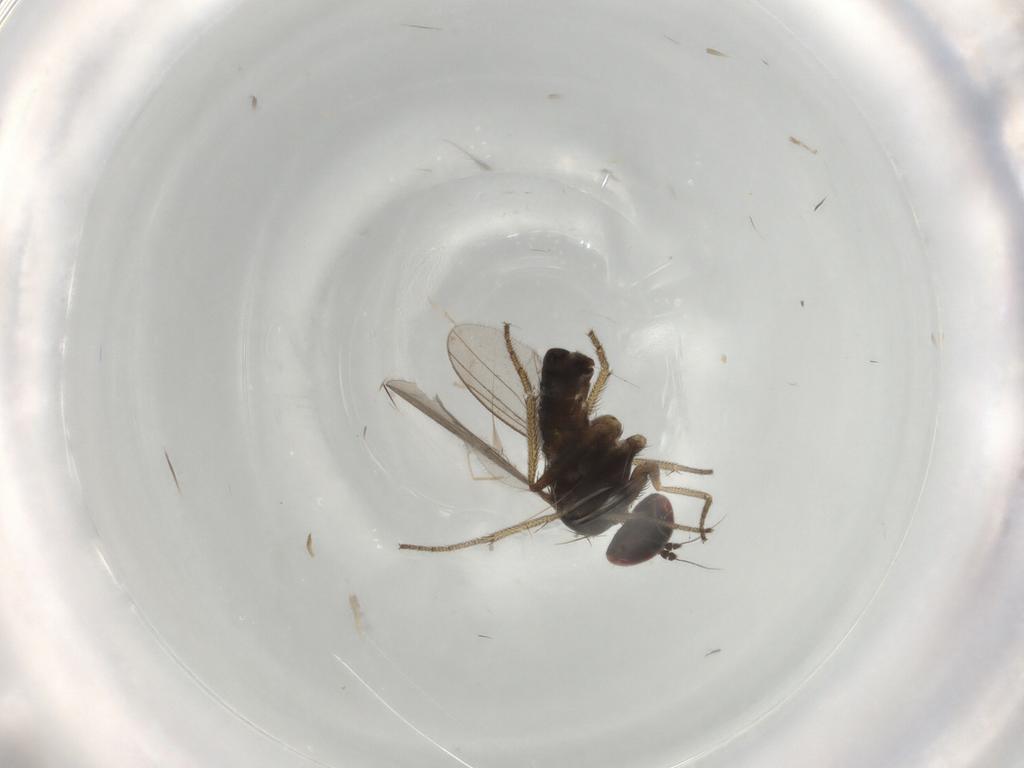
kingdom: Animalia
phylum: Arthropoda
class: Insecta
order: Diptera
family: Dolichopodidae
